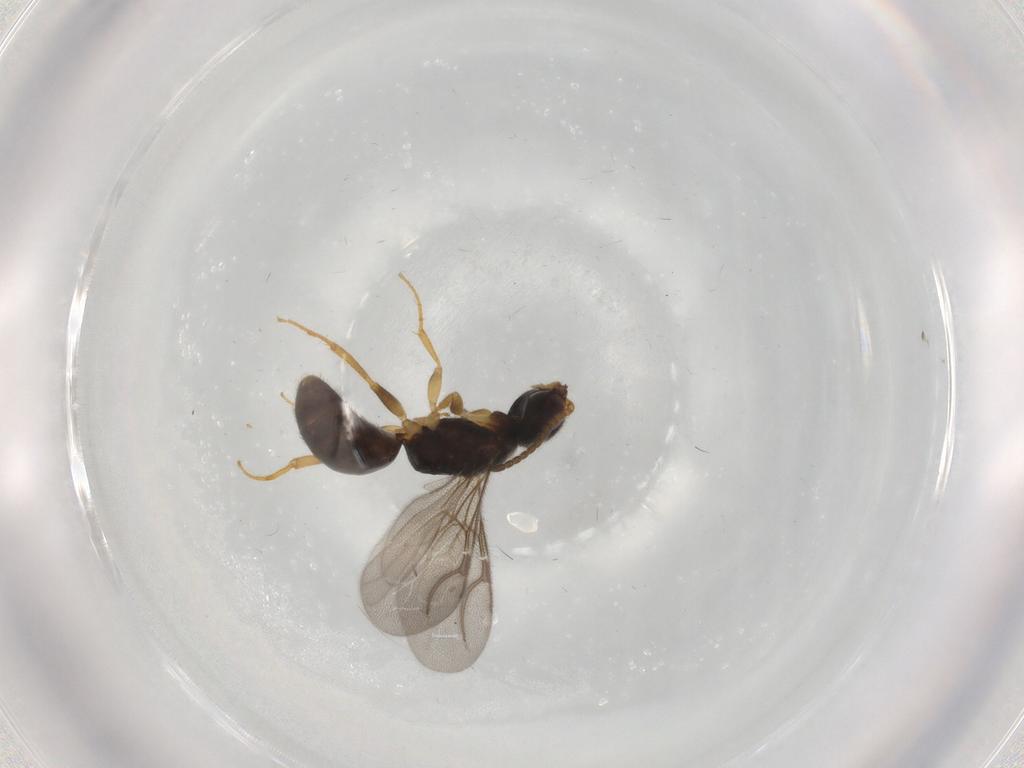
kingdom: Animalia
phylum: Arthropoda
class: Insecta
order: Hymenoptera
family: Bethylidae
